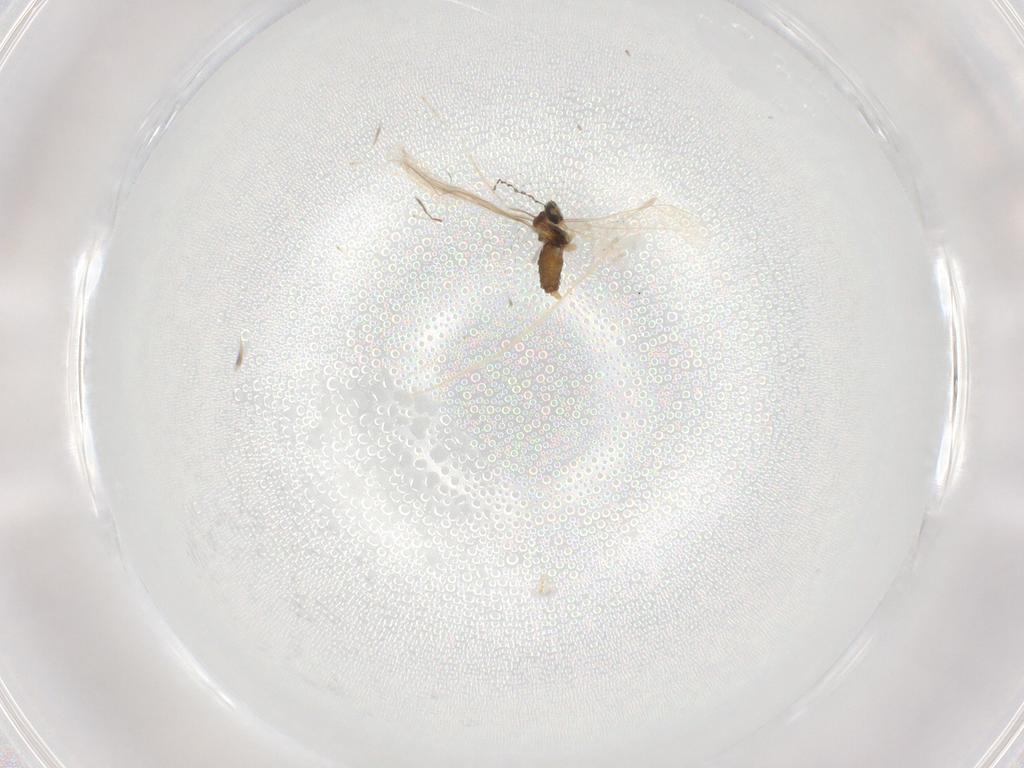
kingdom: Animalia
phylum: Arthropoda
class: Insecta
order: Diptera
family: Cecidomyiidae
